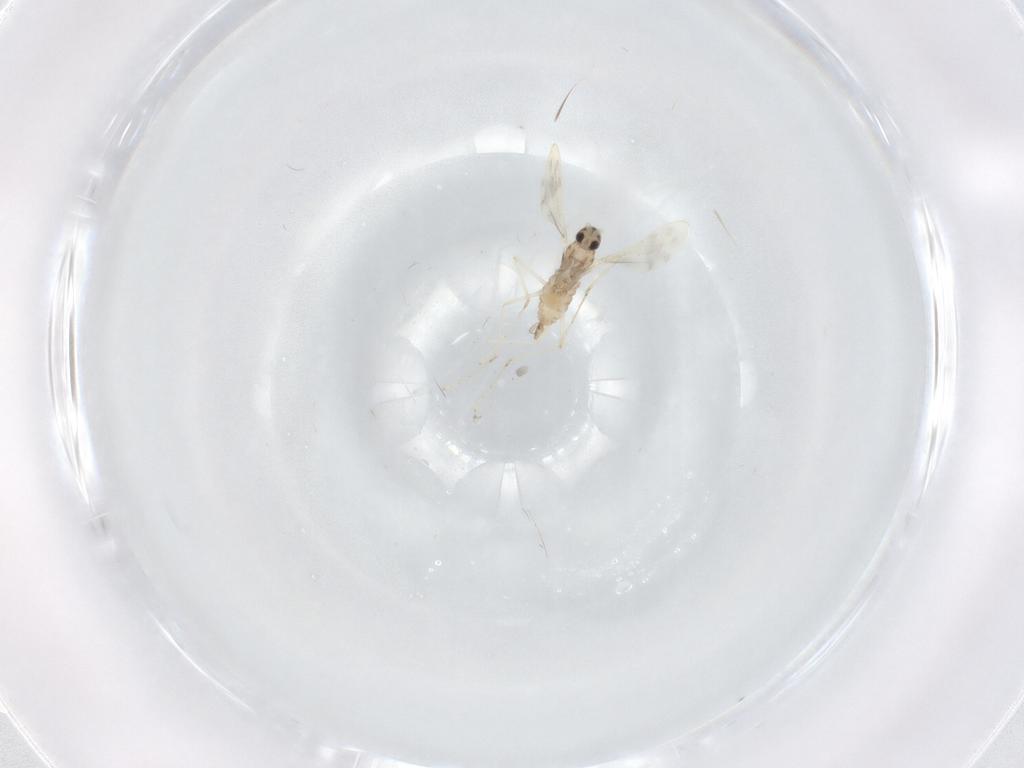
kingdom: Animalia
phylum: Arthropoda
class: Insecta
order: Diptera
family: Cecidomyiidae
